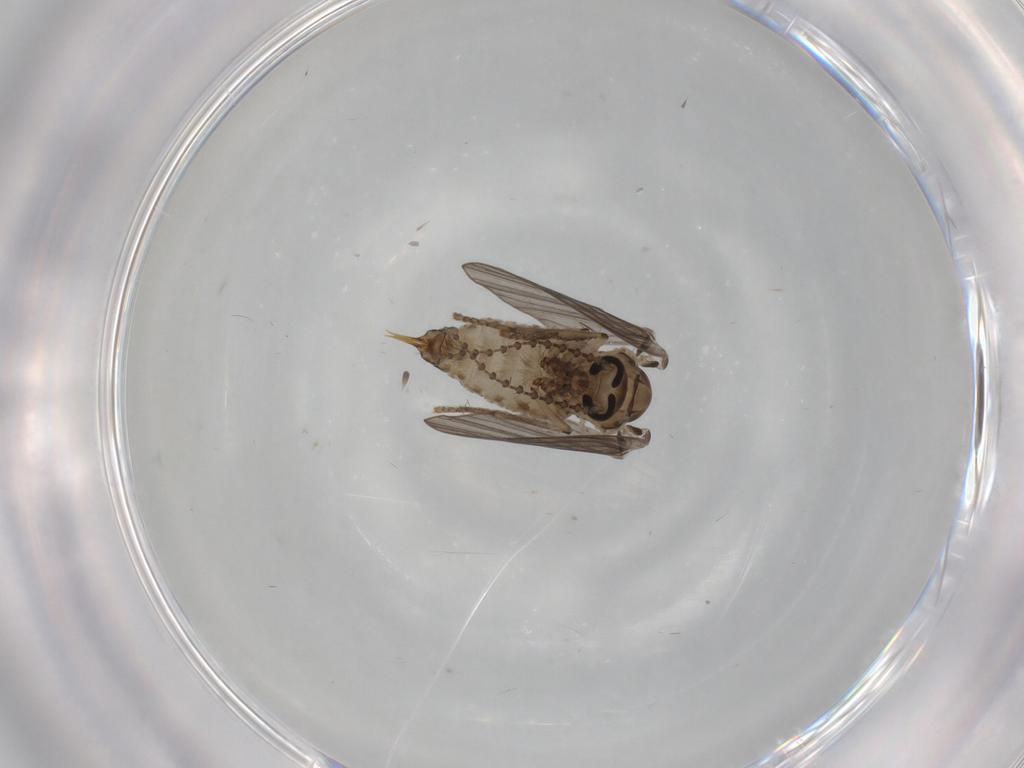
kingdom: Animalia
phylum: Arthropoda
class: Insecta
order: Diptera
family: Psychodidae
